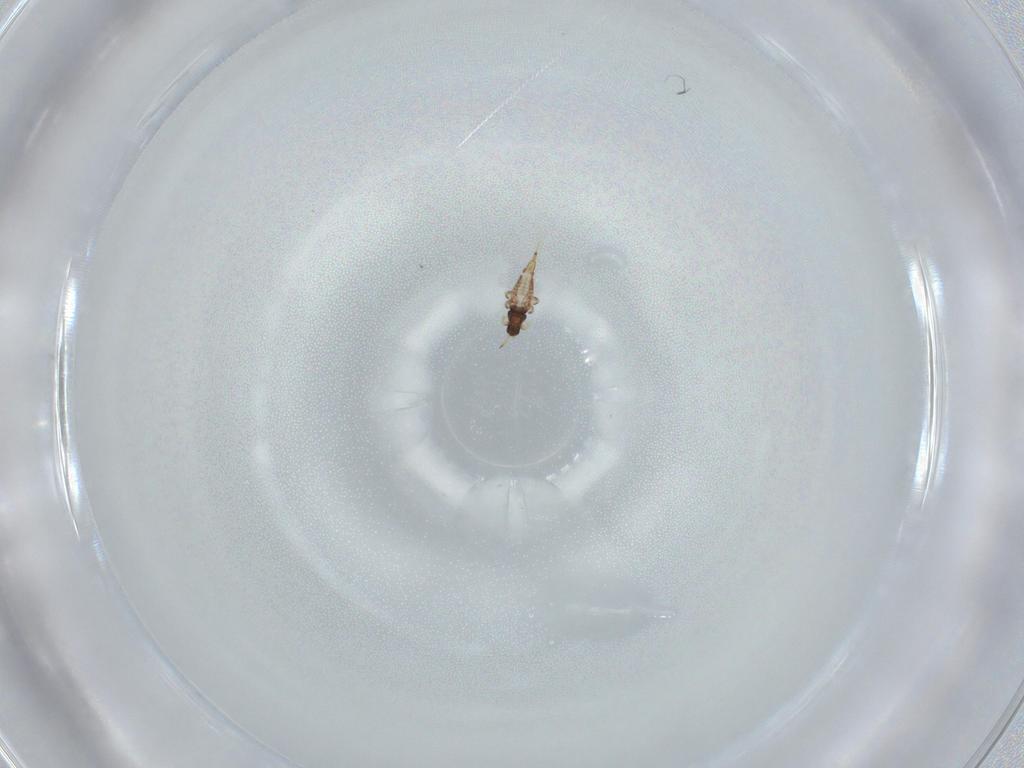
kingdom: Animalia
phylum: Arthropoda
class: Insecta
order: Thysanoptera
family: Phlaeothripidae
